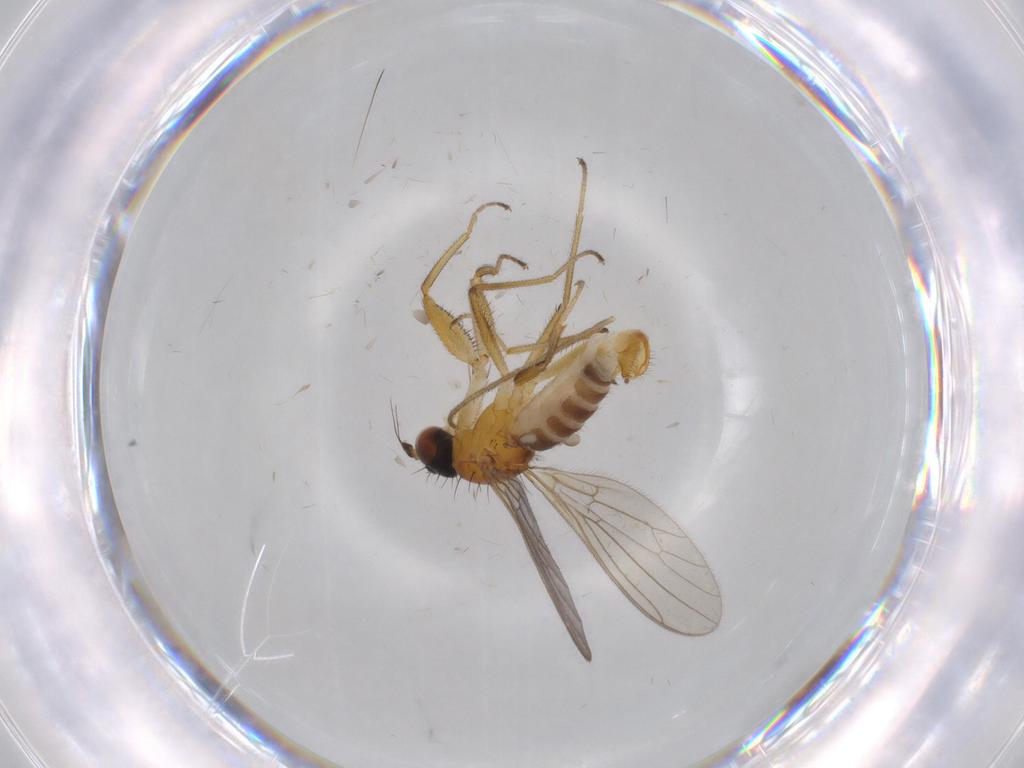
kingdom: Animalia
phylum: Arthropoda
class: Insecta
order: Diptera
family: Empididae
